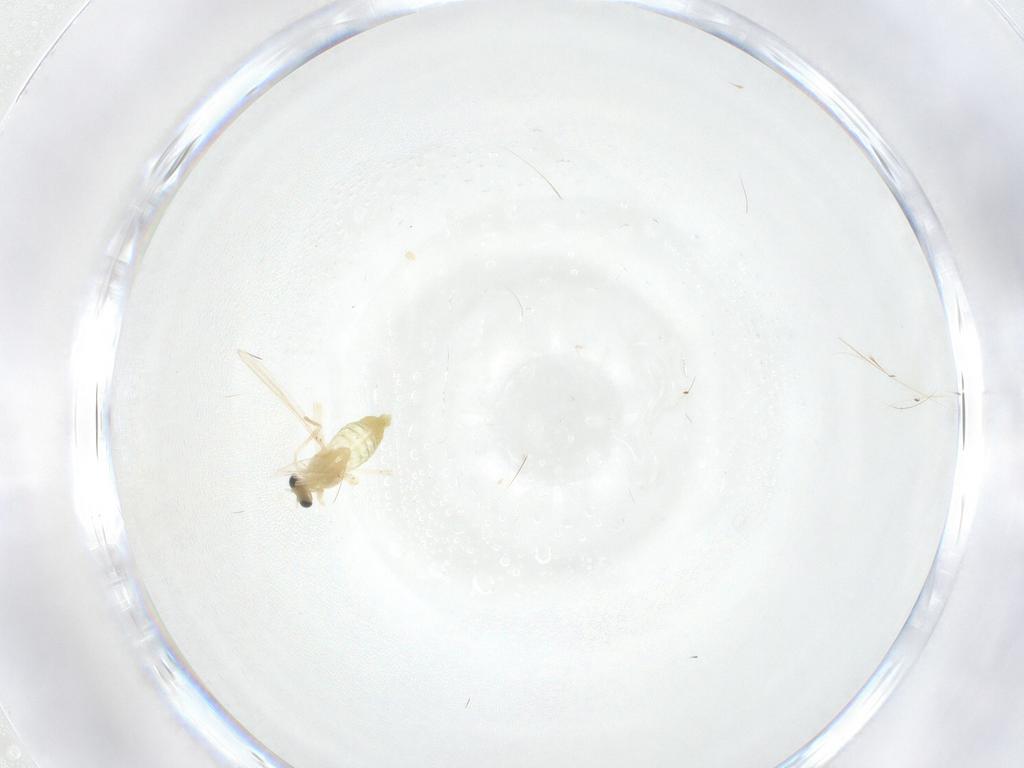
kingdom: Animalia
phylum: Arthropoda
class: Insecta
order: Diptera
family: Chironomidae
